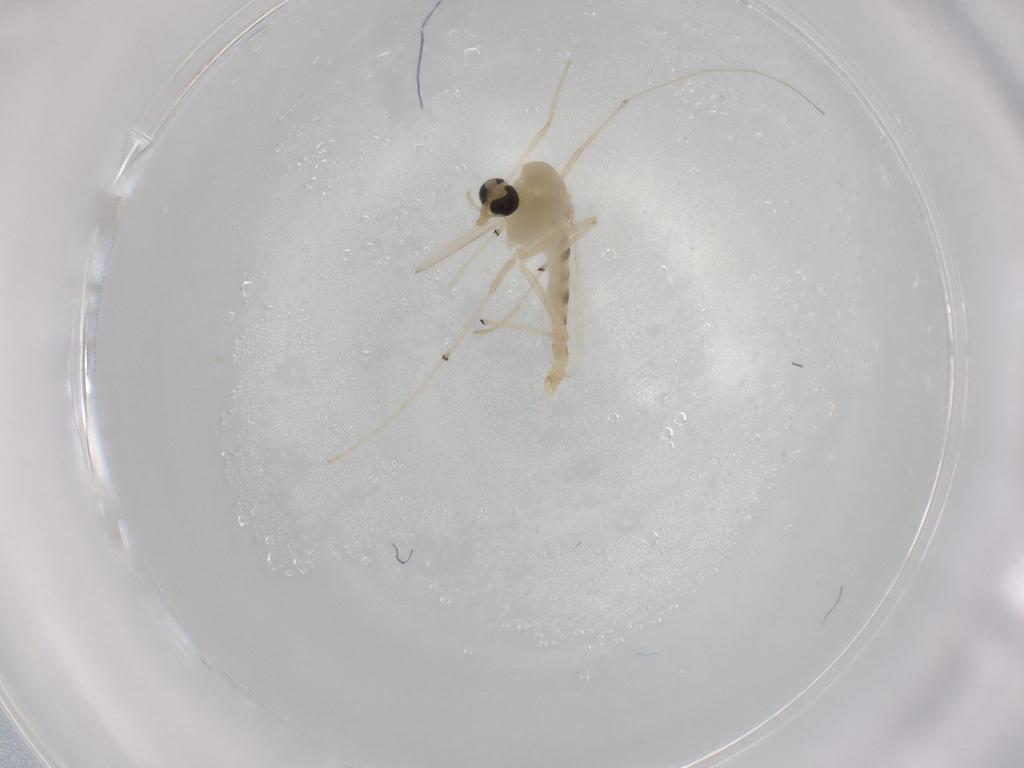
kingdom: Animalia
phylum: Arthropoda
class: Insecta
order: Diptera
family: Chironomidae
